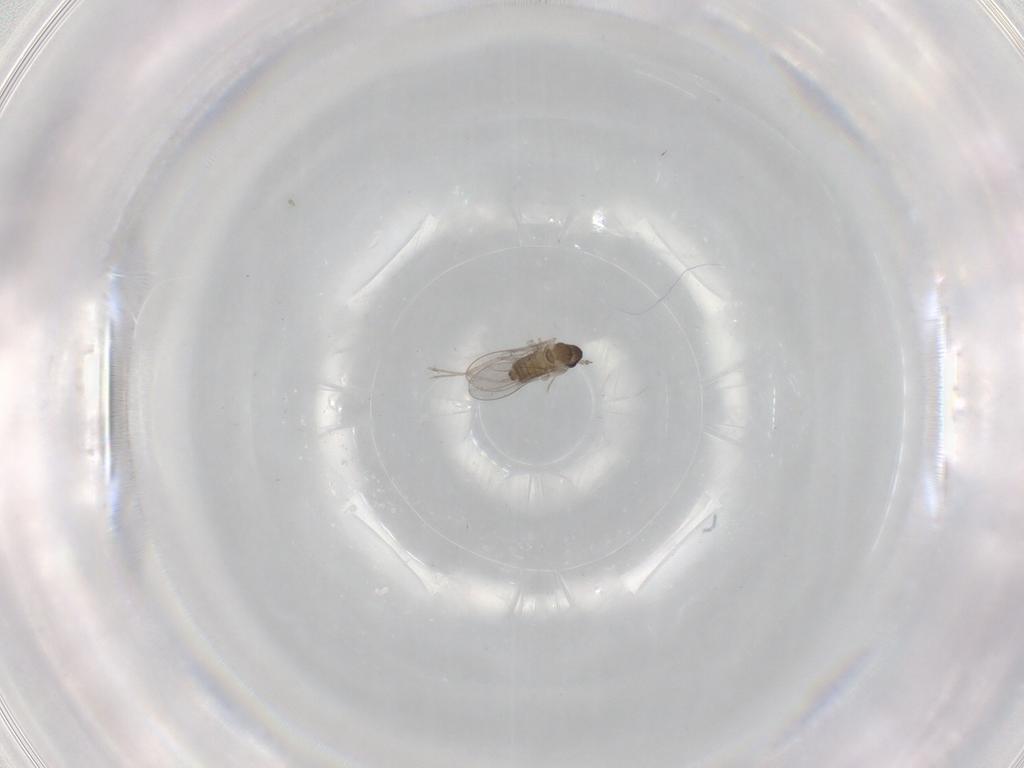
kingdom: Animalia
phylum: Arthropoda
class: Insecta
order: Diptera
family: Cecidomyiidae
